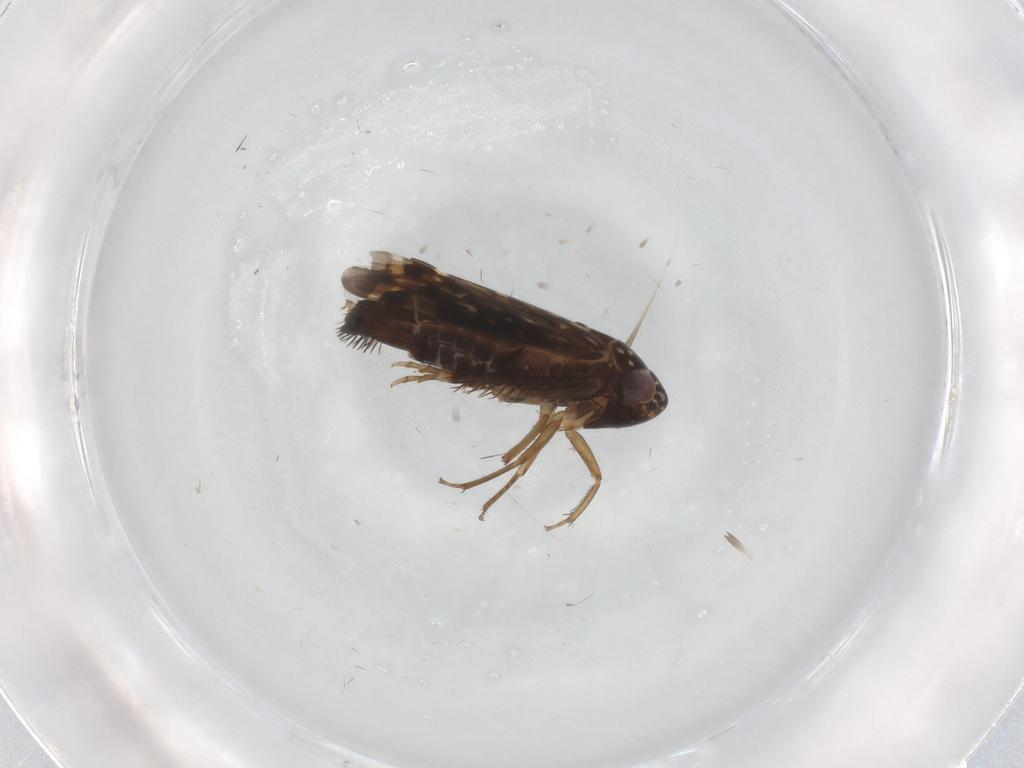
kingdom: Animalia
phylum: Arthropoda
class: Insecta
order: Hemiptera
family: Cicadellidae
